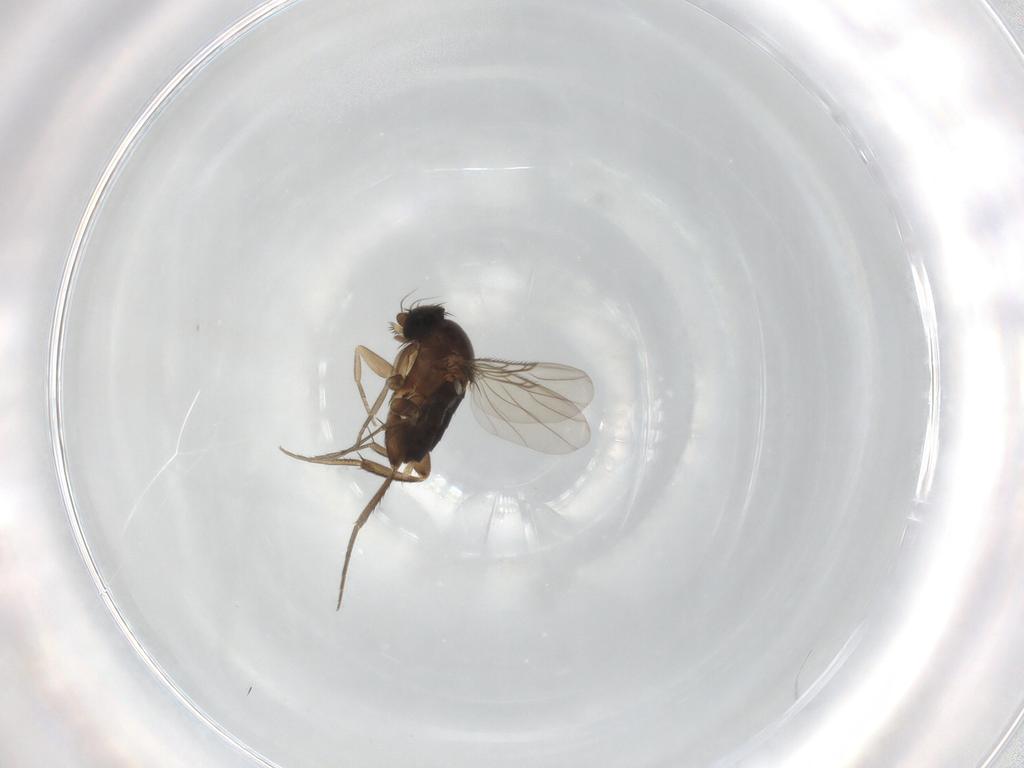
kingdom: Animalia
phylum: Arthropoda
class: Insecta
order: Diptera
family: Phoridae
